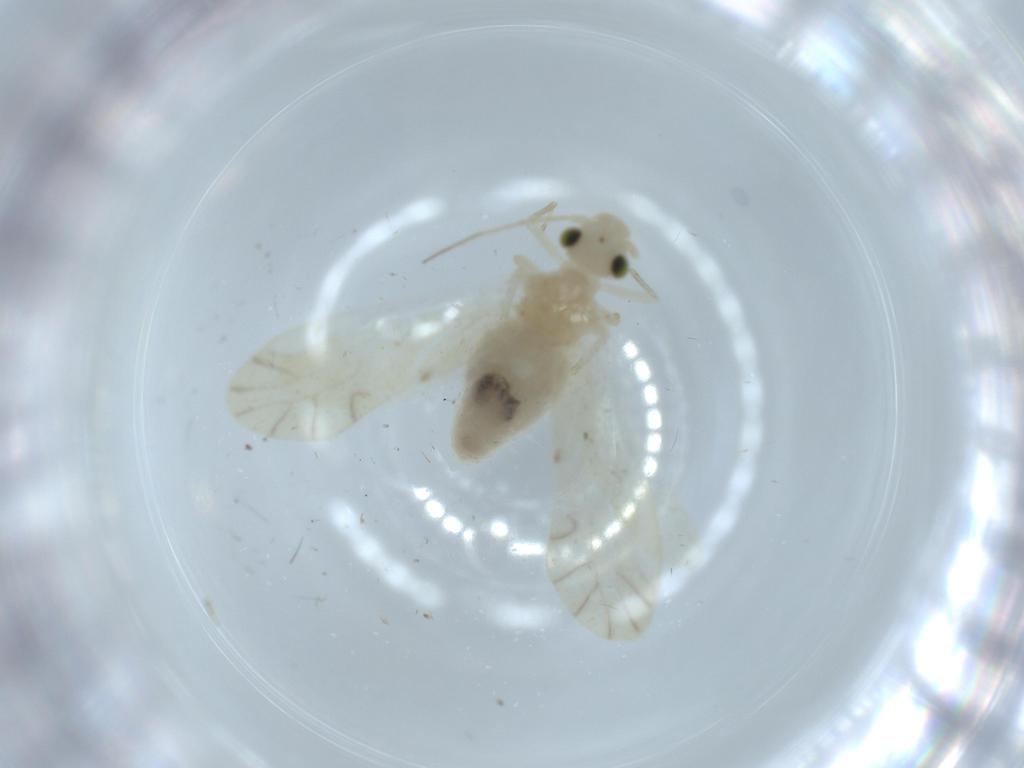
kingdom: Animalia
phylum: Arthropoda
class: Insecta
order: Psocodea
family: Caeciliusidae
